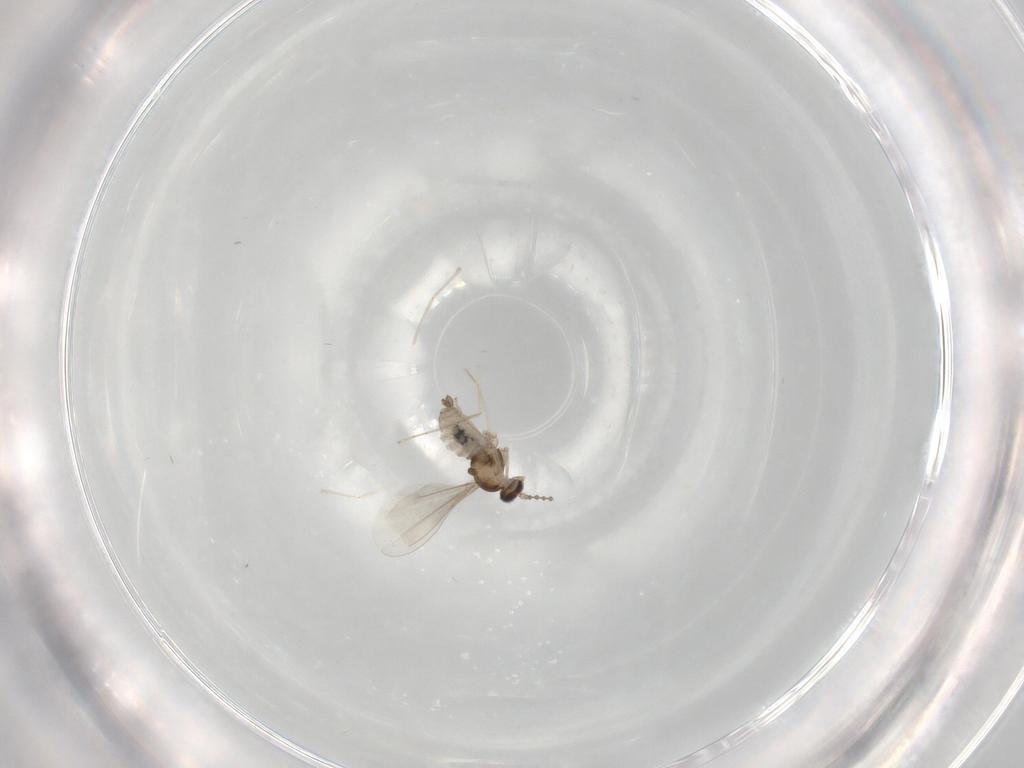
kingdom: Animalia
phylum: Arthropoda
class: Insecta
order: Diptera
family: Cecidomyiidae
